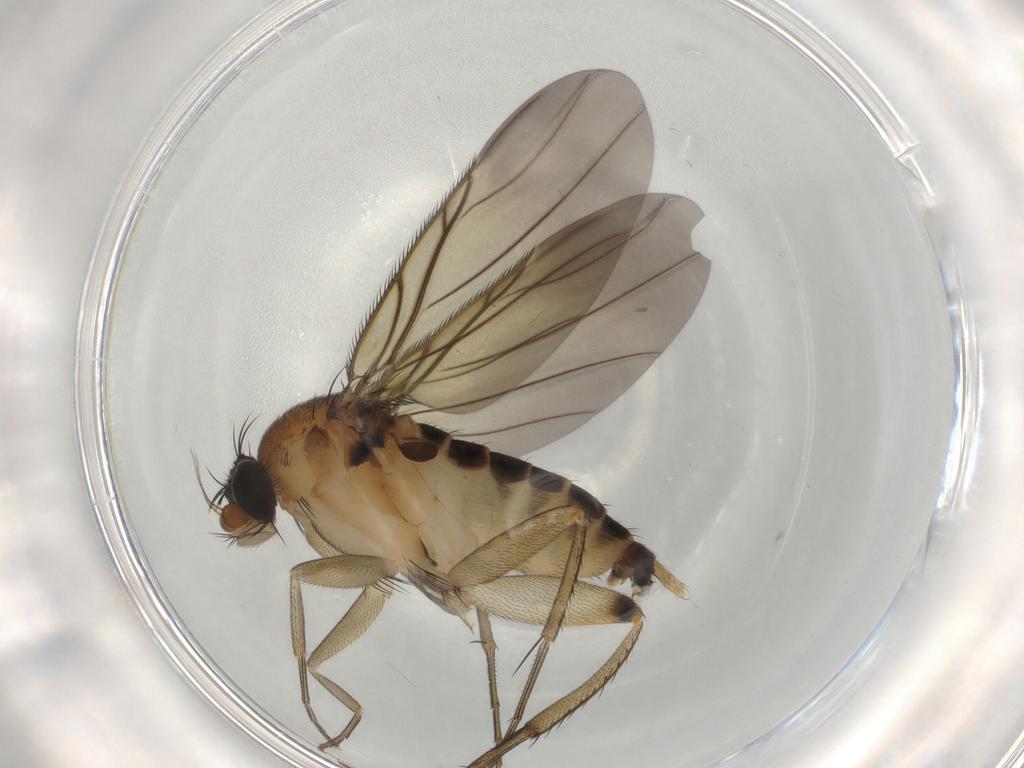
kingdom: Animalia
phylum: Arthropoda
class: Insecta
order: Diptera
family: Phoridae
